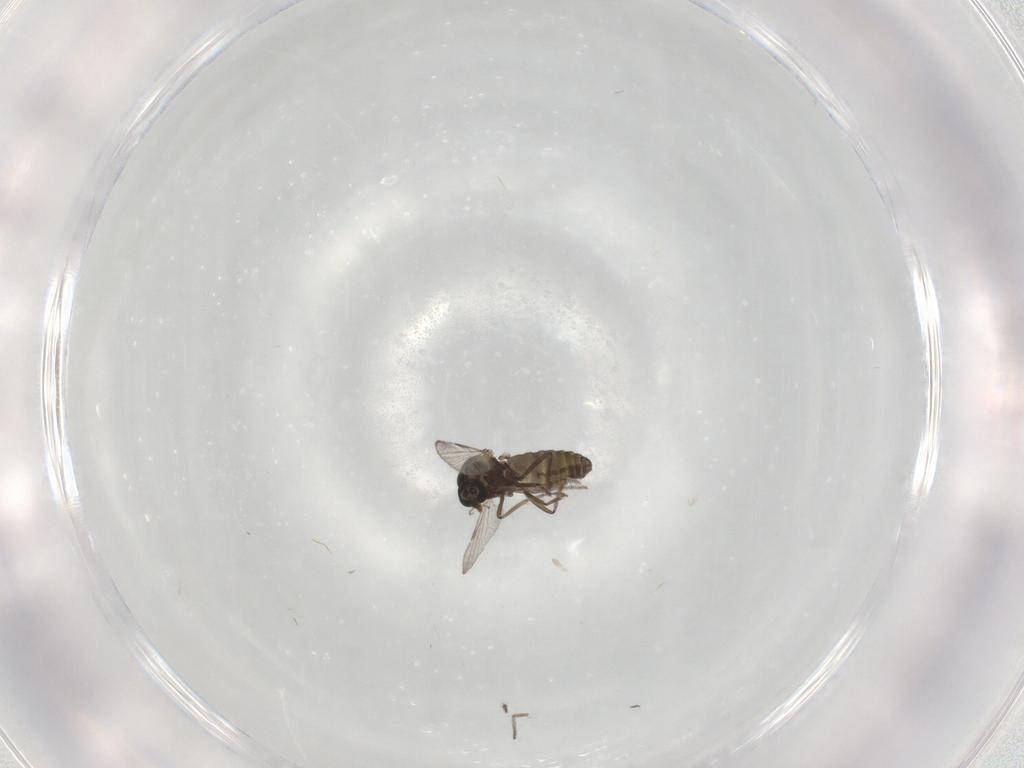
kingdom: Animalia
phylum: Arthropoda
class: Insecta
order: Diptera
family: Ceratopogonidae
